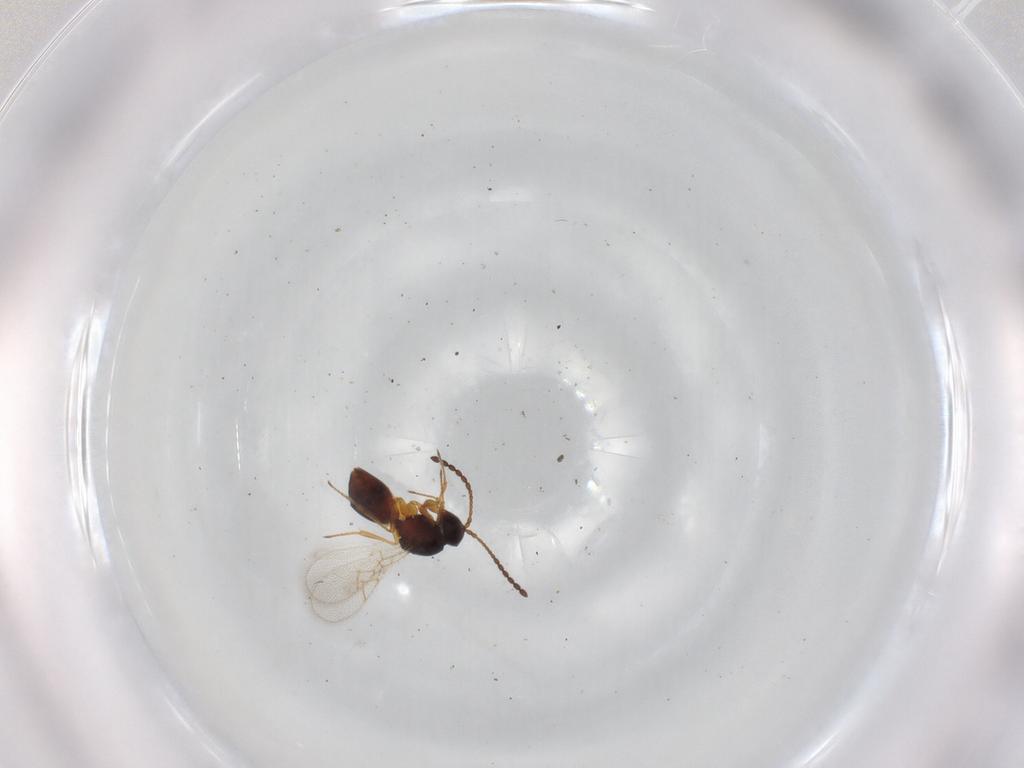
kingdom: Animalia
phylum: Arthropoda
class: Insecta
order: Hymenoptera
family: Figitidae
